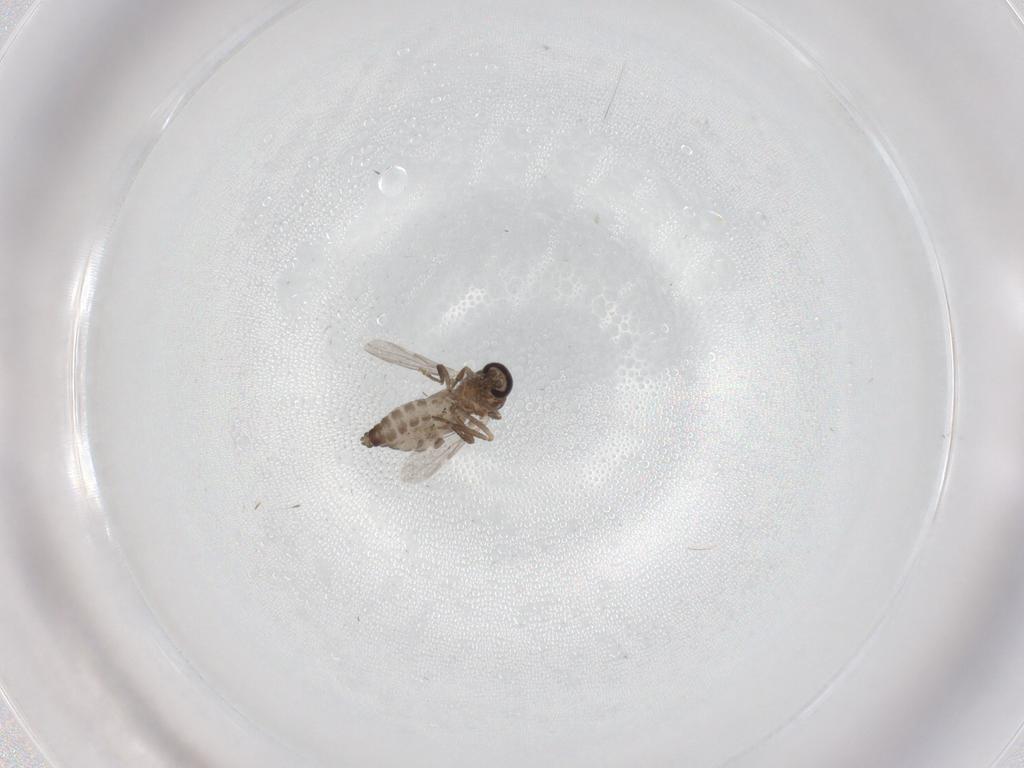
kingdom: Animalia
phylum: Arthropoda
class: Insecta
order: Diptera
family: Ceratopogonidae
